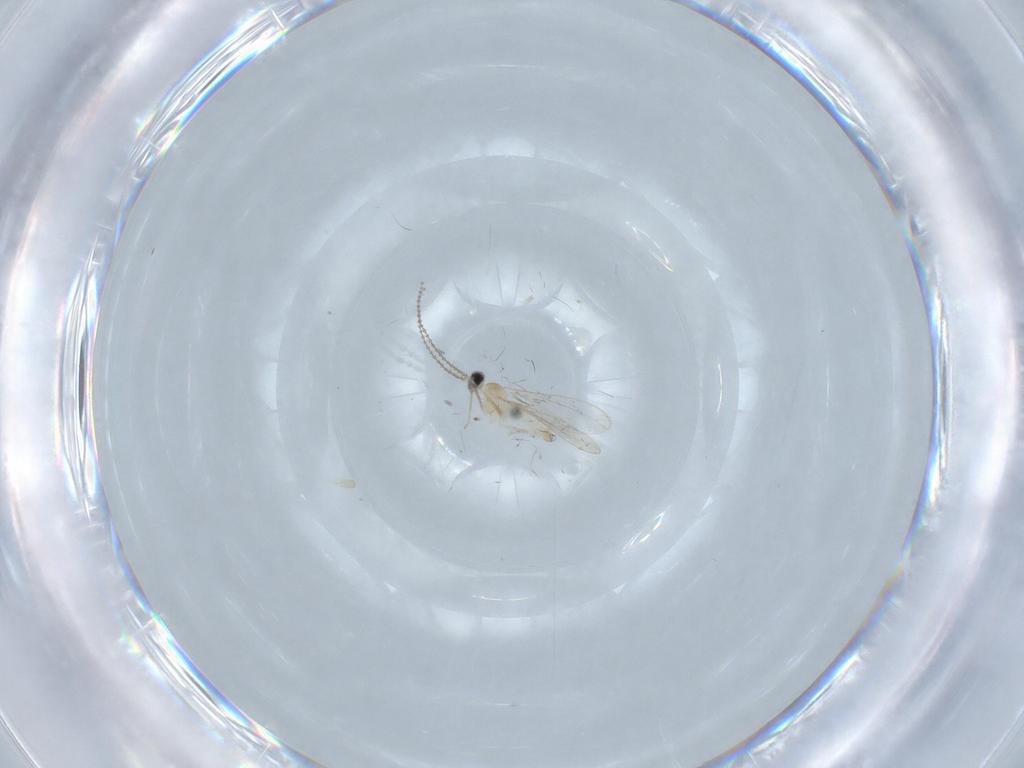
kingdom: Animalia
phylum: Arthropoda
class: Insecta
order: Diptera
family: Cecidomyiidae
